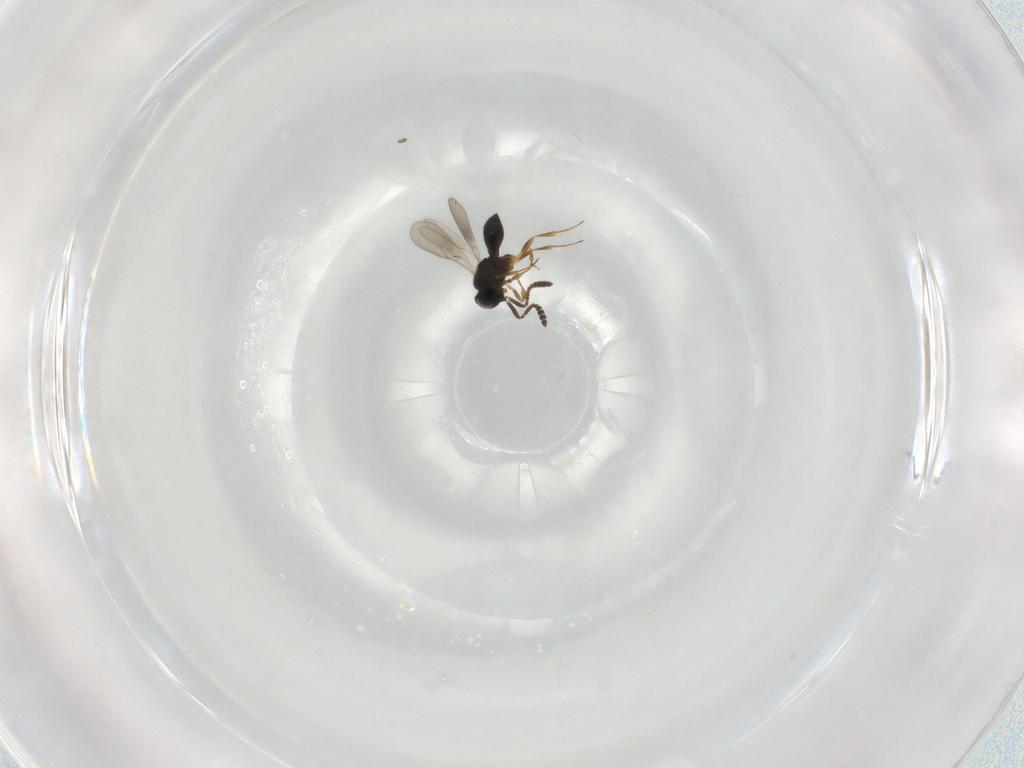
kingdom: Animalia
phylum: Arthropoda
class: Insecta
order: Hymenoptera
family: Scelionidae
